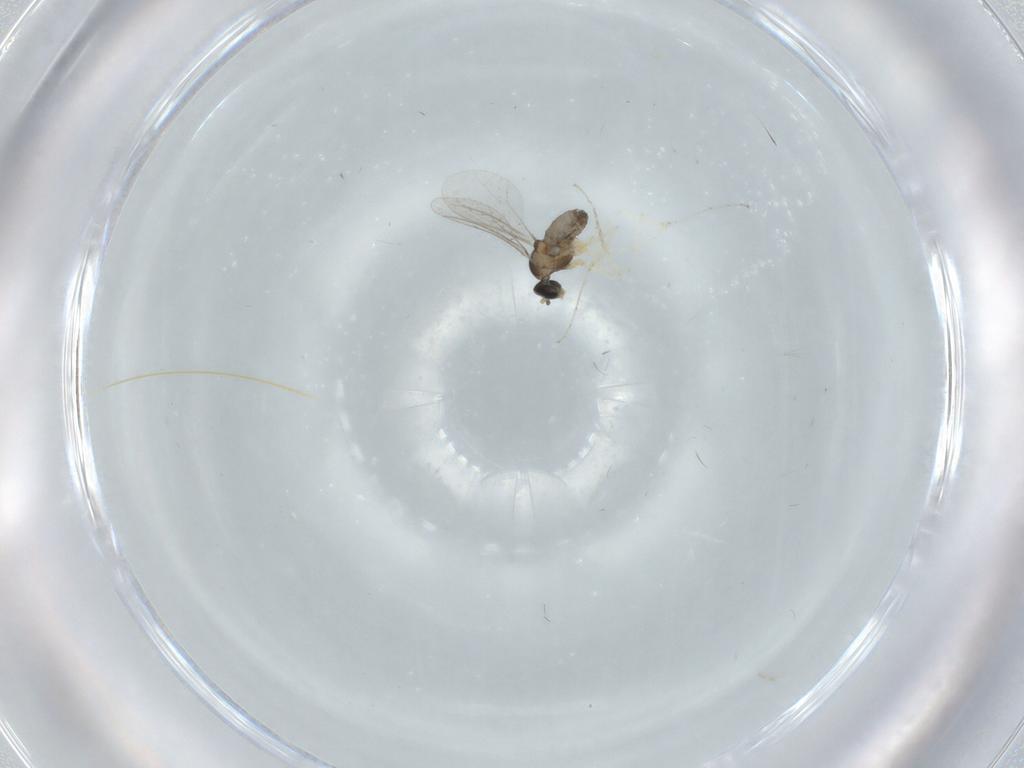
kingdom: Animalia
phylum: Arthropoda
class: Insecta
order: Diptera
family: Cecidomyiidae
